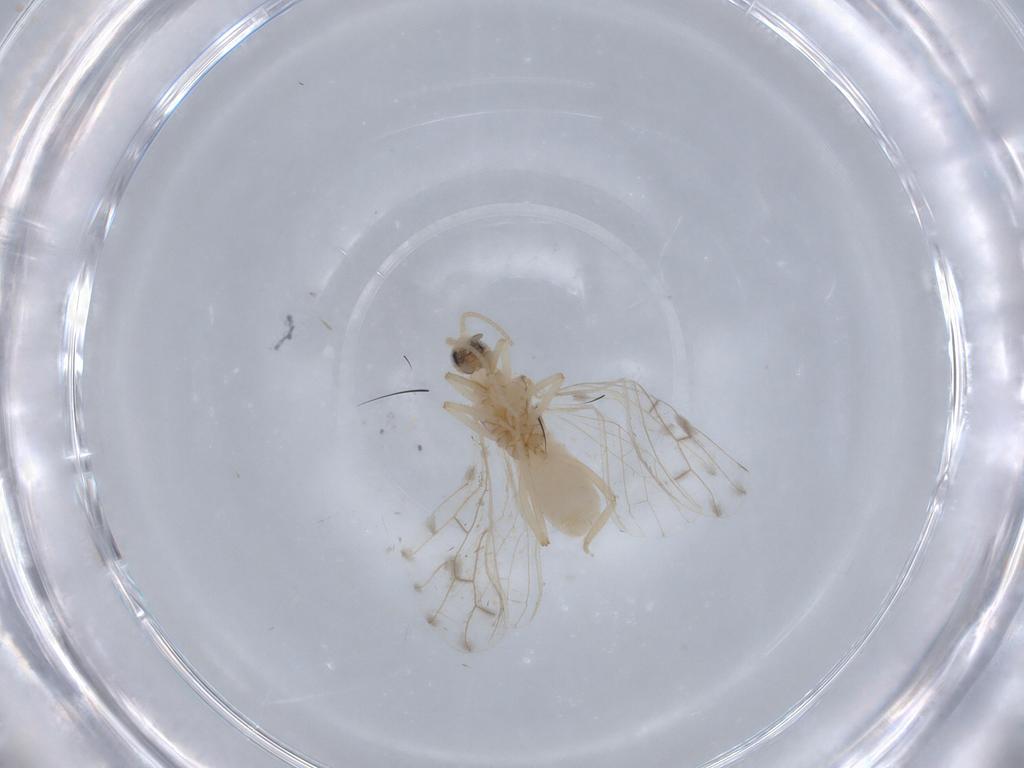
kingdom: Animalia
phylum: Arthropoda
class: Insecta
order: Neuroptera
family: Coniopterygidae
